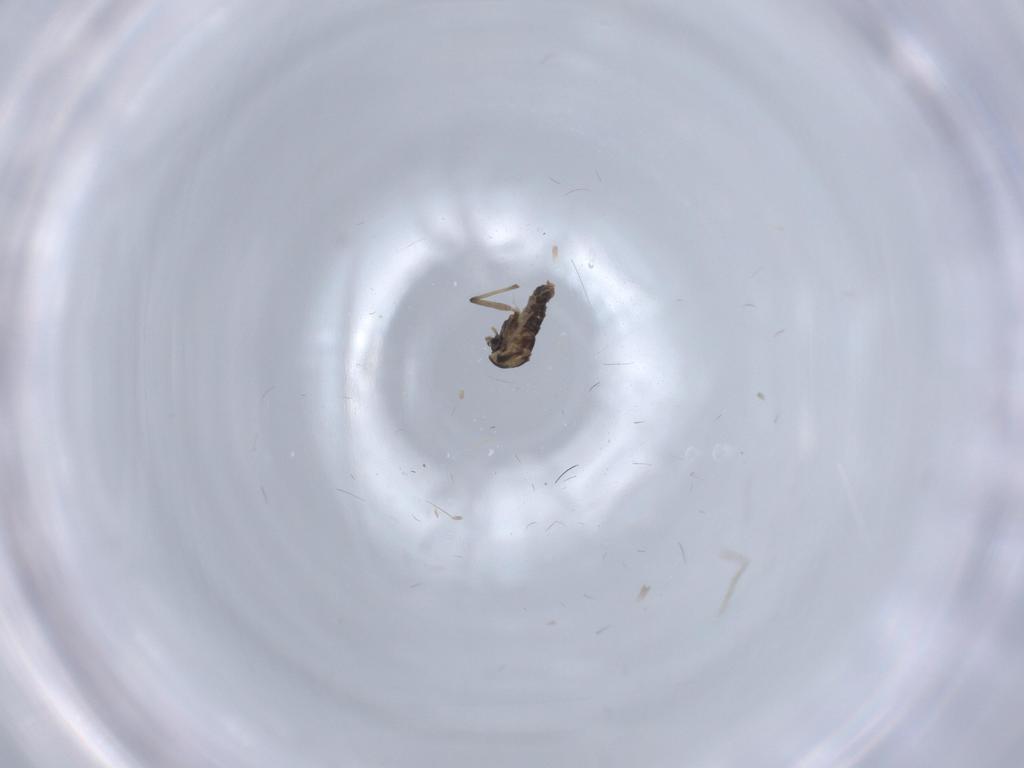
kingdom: Animalia
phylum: Arthropoda
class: Insecta
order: Diptera
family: Chironomidae
